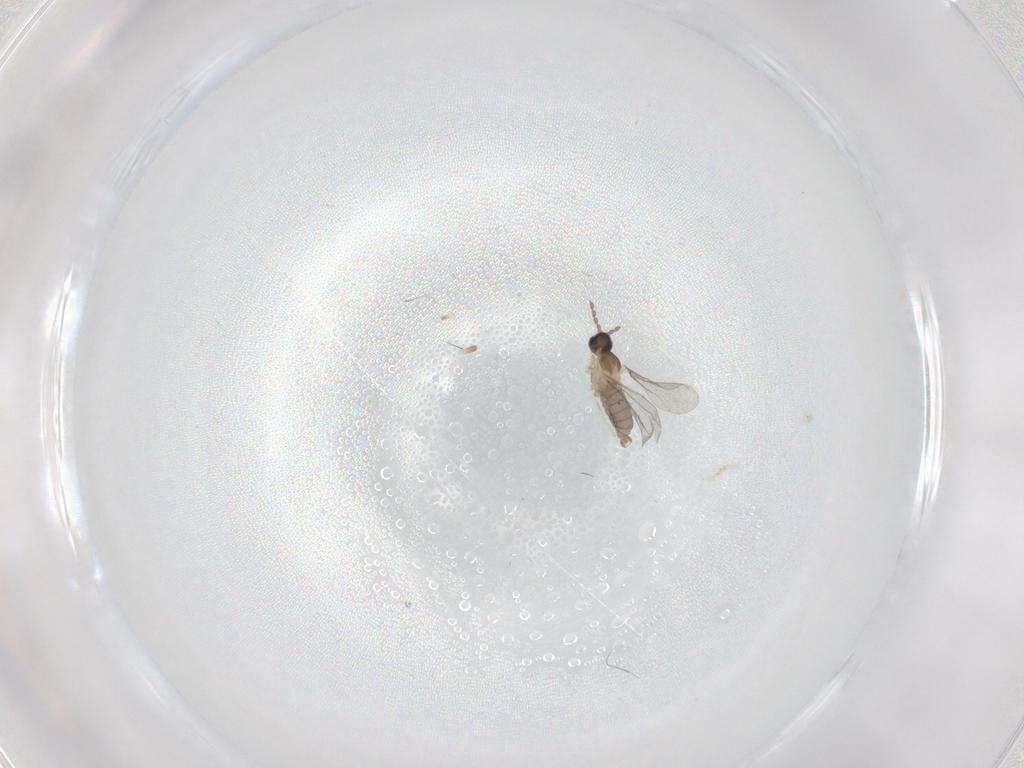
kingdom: Animalia
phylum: Arthropoda
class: Insecta
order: Diptera
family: Cecidomyiidae
